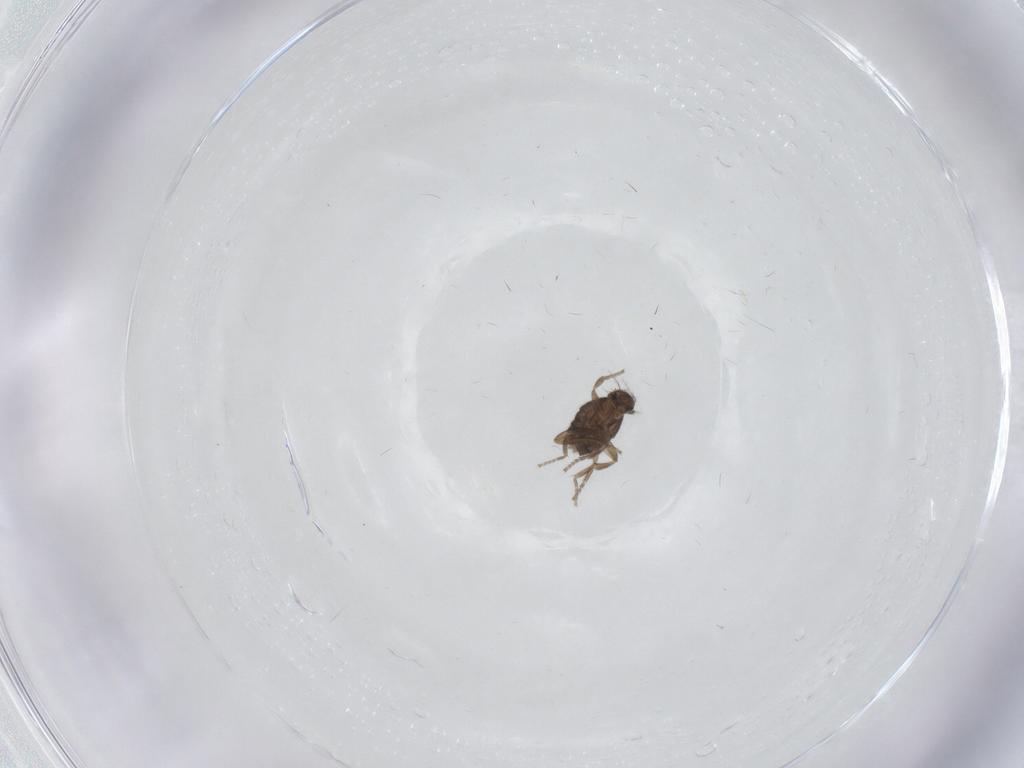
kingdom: Animalia
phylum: Arthropoda
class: Insecta
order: Diptera
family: Phoridae
